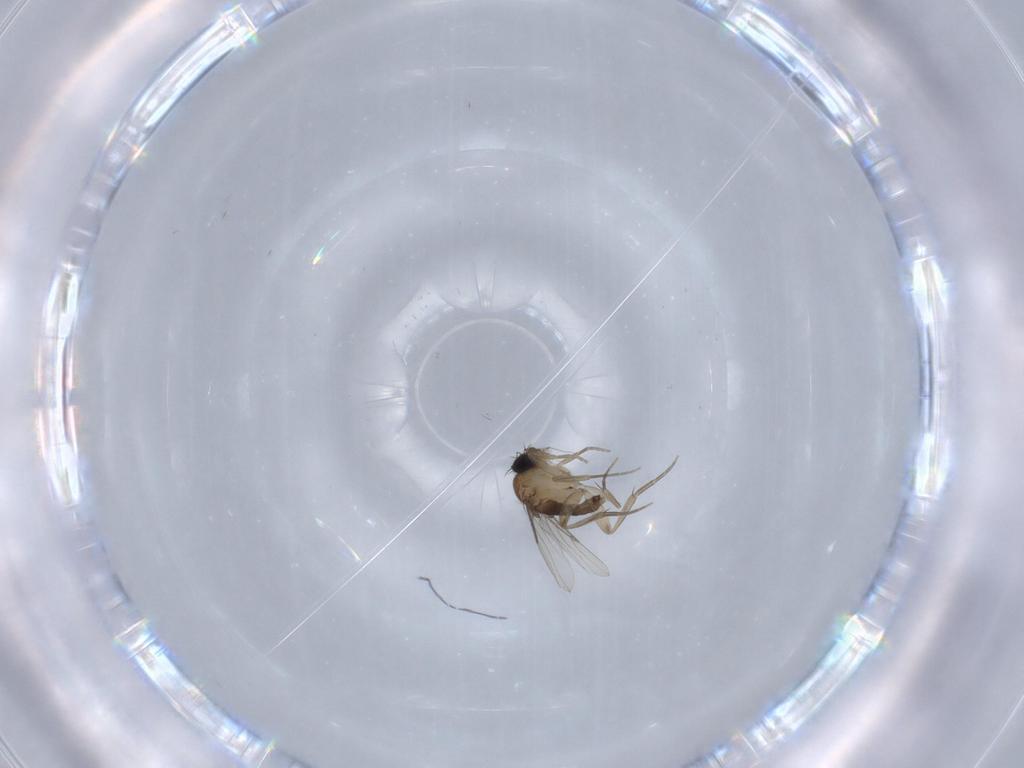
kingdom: Animalia
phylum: Arthropoda
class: Insecta
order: Diptera
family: Phoridae
